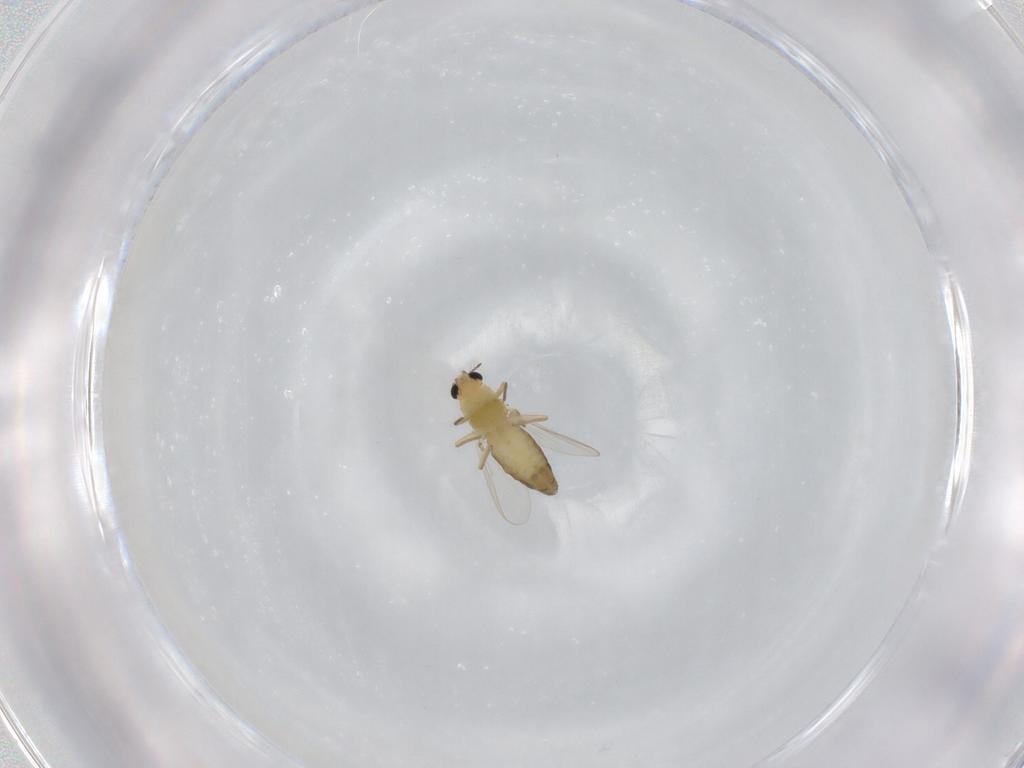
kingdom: Animalia
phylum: Arthropoda
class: Insecta
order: Diptera
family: Chironomidae
